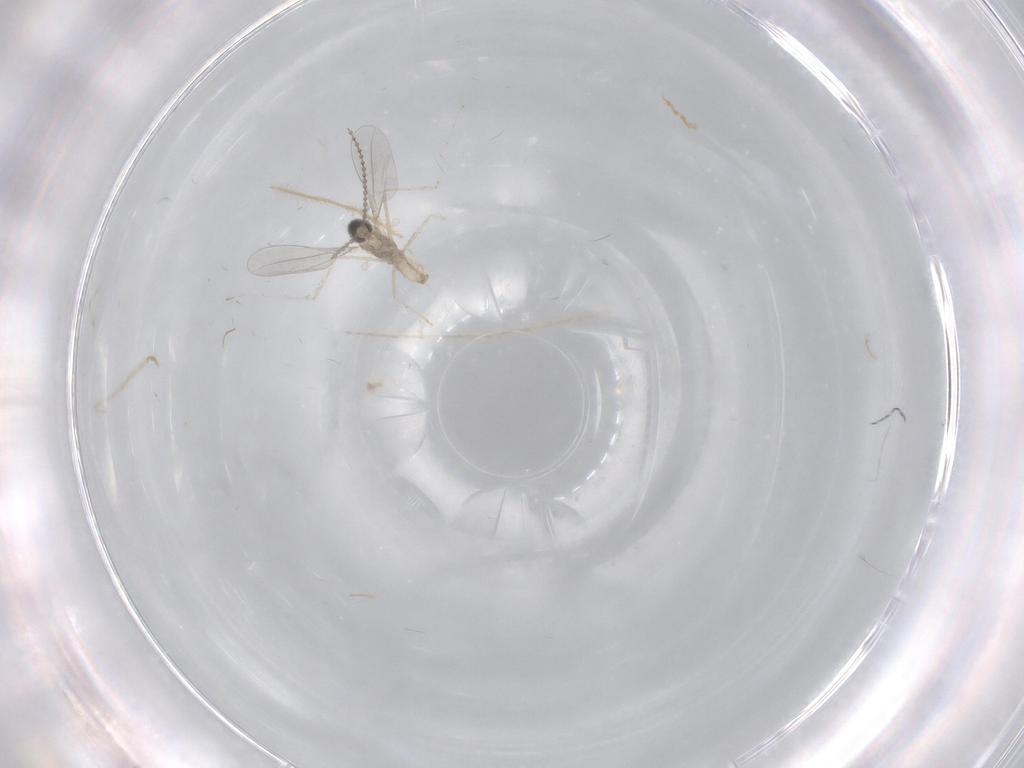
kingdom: Animalia
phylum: Arthropoda
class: Insecta
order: Diptera
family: Cecidomyiidae
